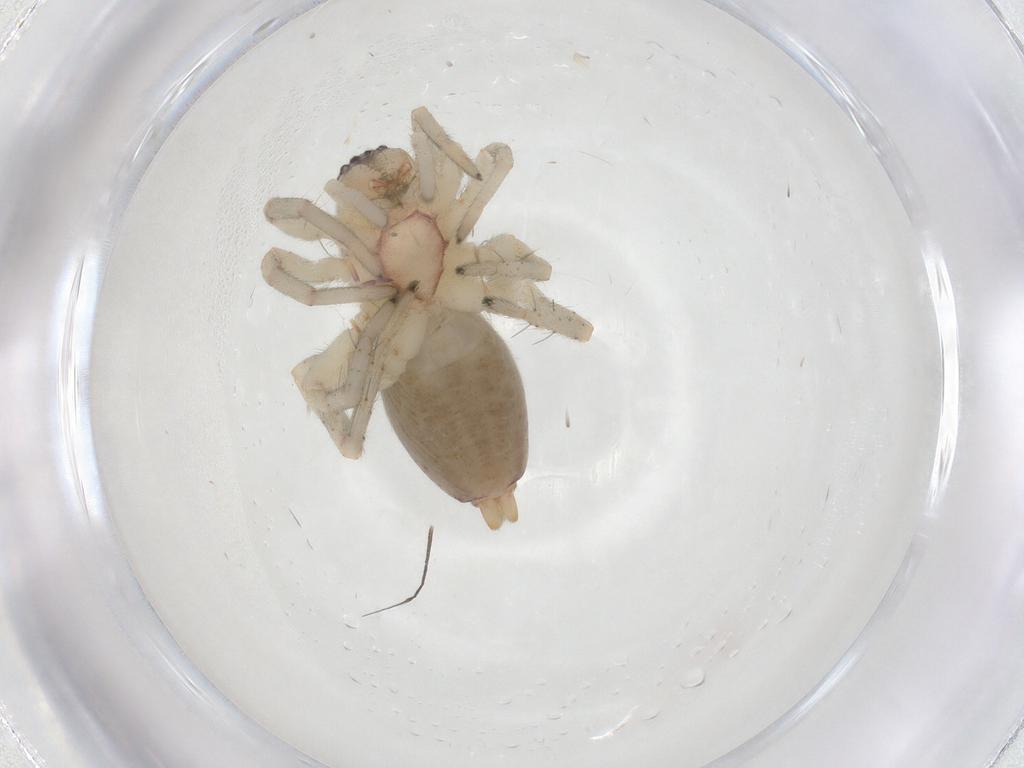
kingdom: Animalia
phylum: Arthropoda
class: Arachnida
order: Araneae
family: Clubionidae
